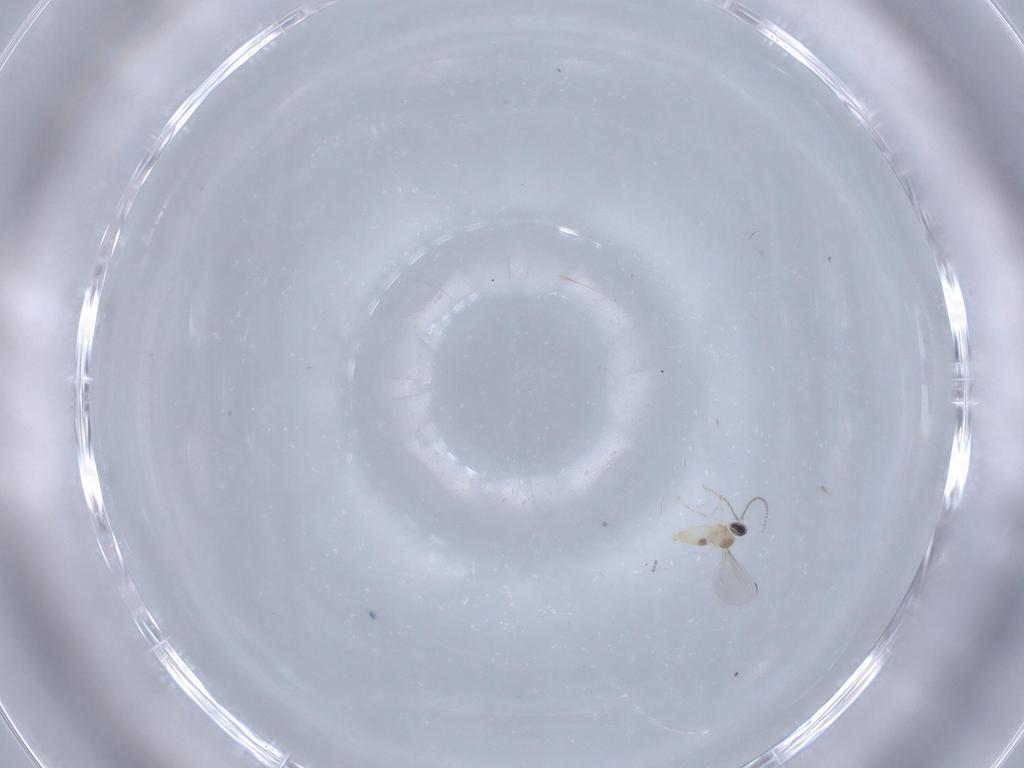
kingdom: Animalia
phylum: Arthropoda
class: Insecta
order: Diptera
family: Cecidomyiidae
